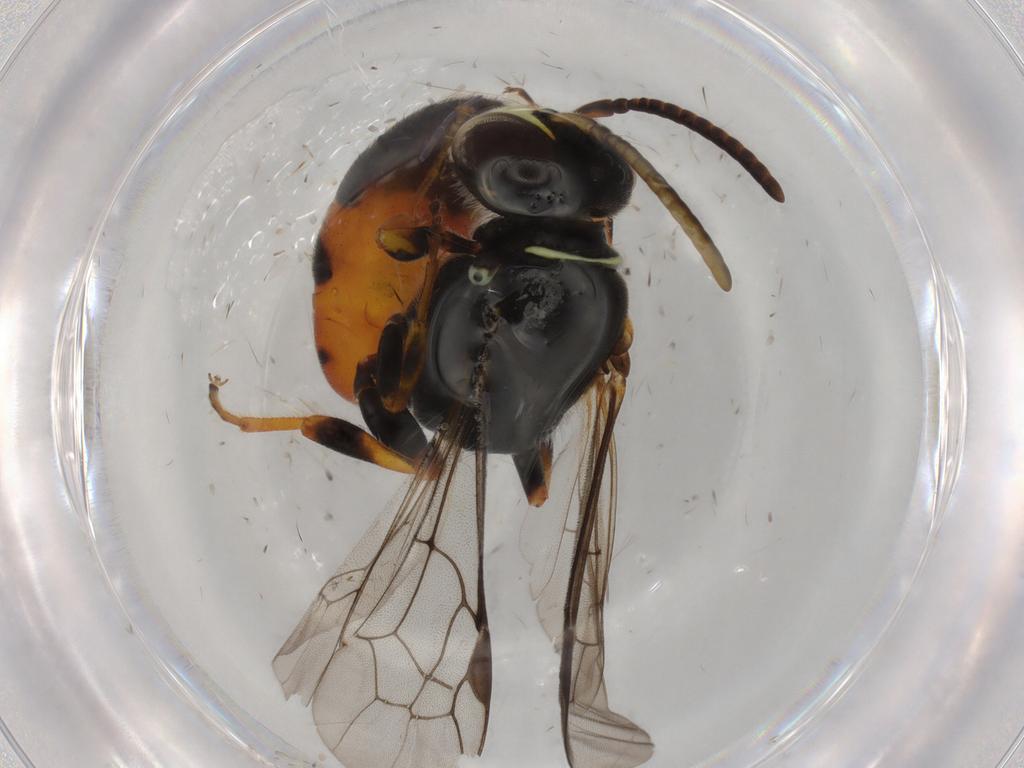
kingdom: Animalia
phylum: Arthropoda
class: Insecta
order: Hymenoptera
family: Colletidae
